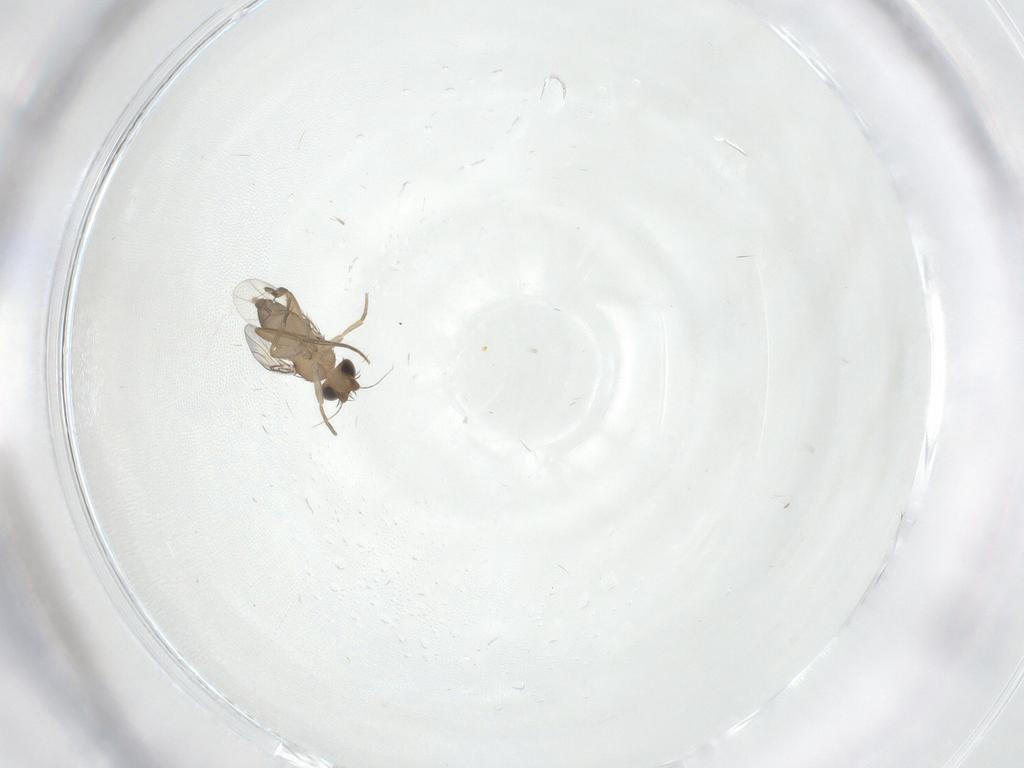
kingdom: Animalia
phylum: Arthropoda
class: Insecta
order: Diptera
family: Phoridae
